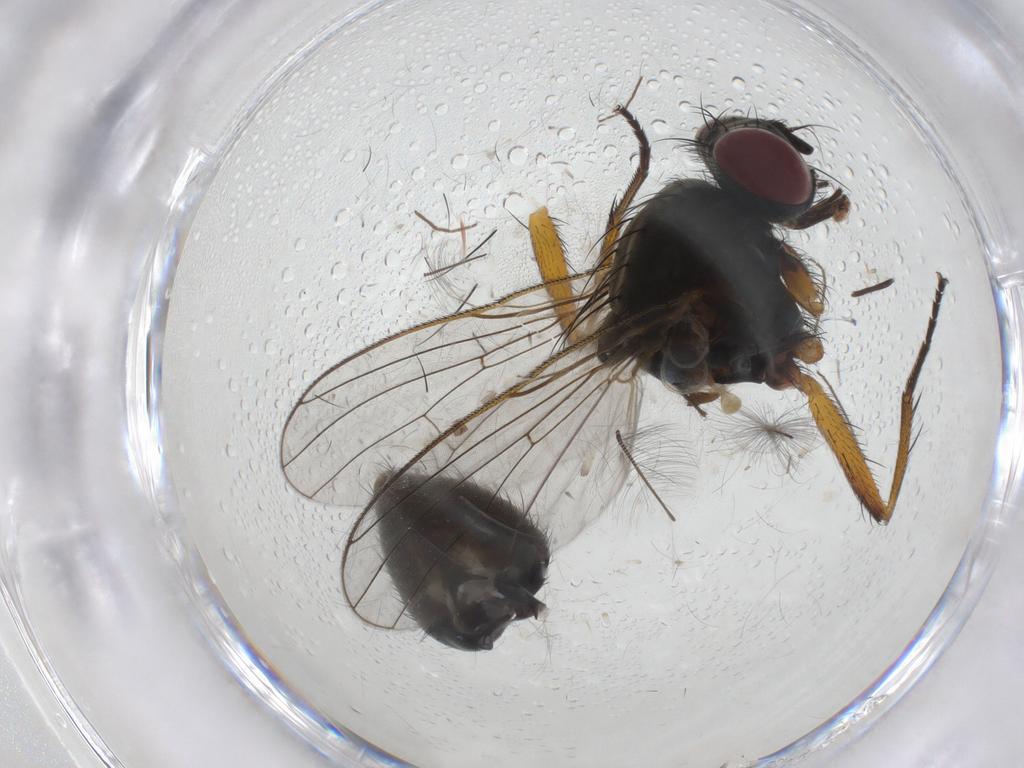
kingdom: Animalia
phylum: Arthropoda
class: Insecta
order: Diptera
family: Muscidae
